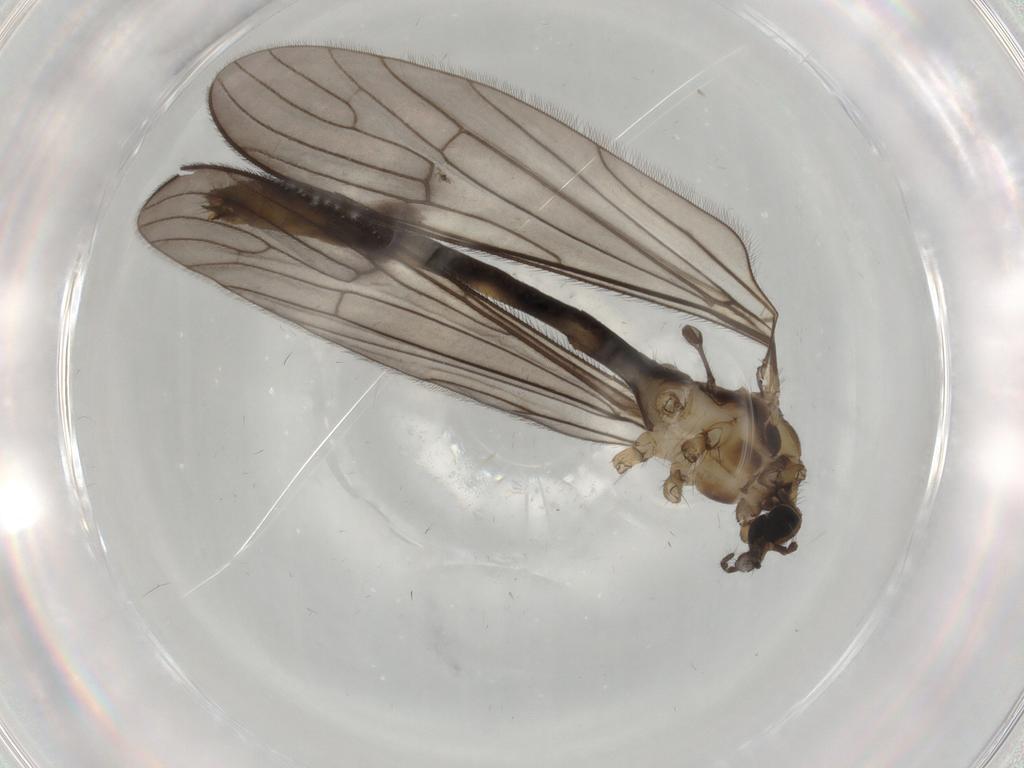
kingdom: Animalia
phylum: Arthropoda
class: Insecta
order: Diptera
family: Limoniidae
